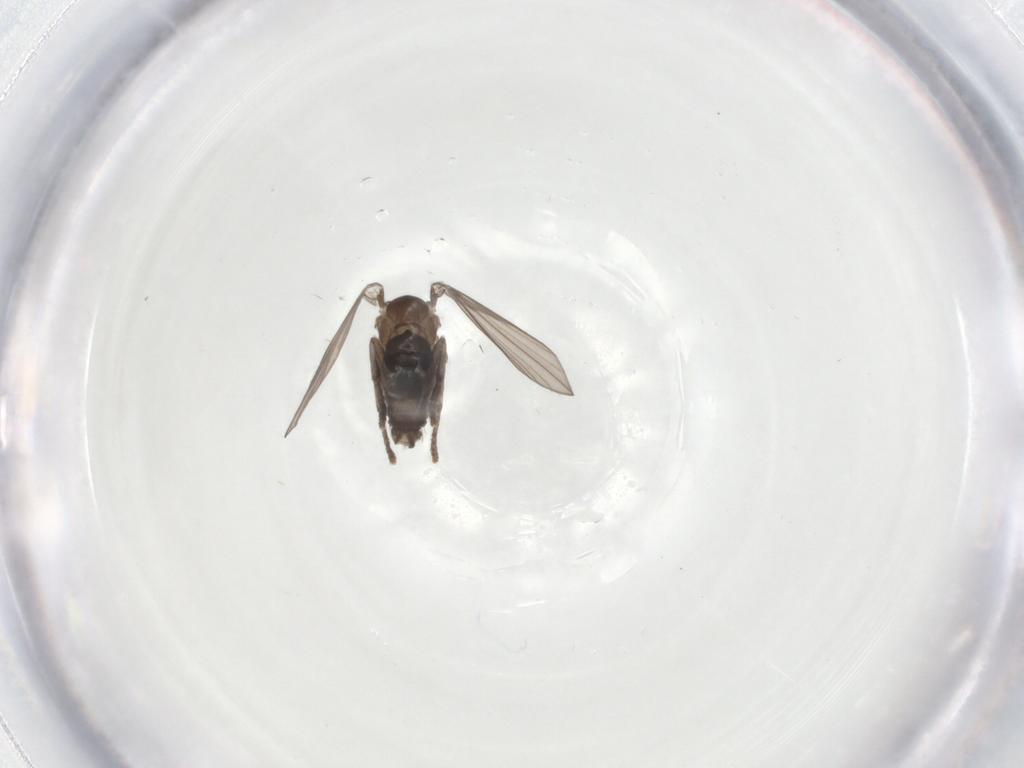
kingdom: Animalia
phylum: Arthropoda
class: Insecta
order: Diptera
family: Psychodidae
